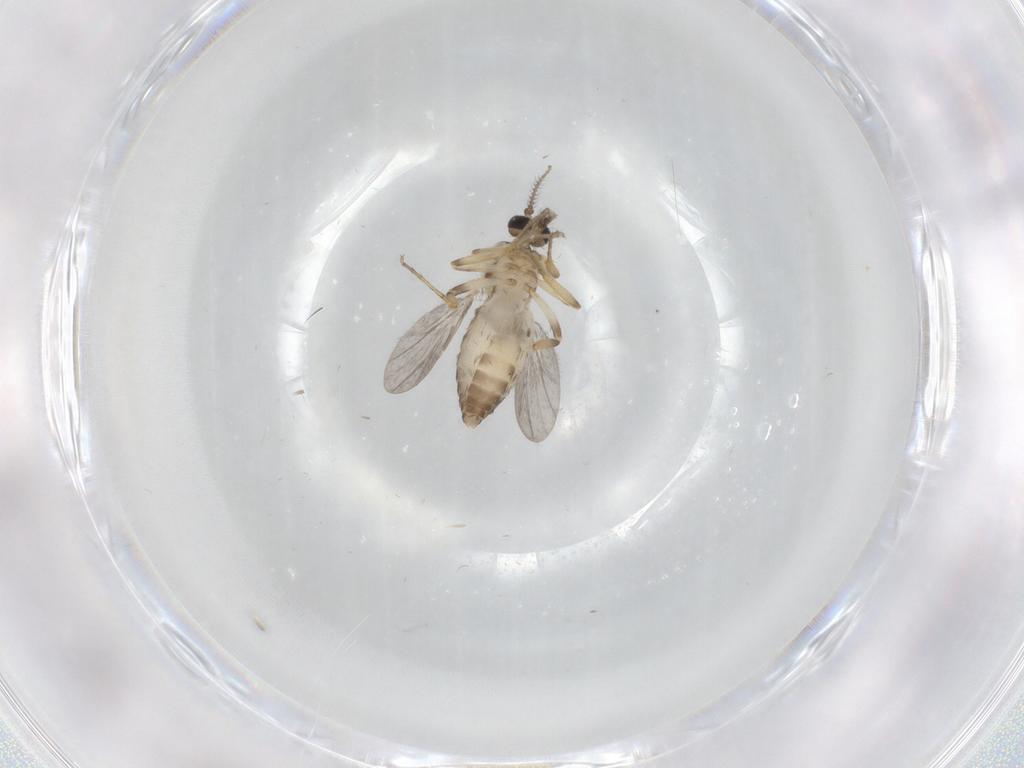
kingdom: Animalia
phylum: Arthropoda
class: Insecta
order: Diptera
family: Ceratopogonidae
